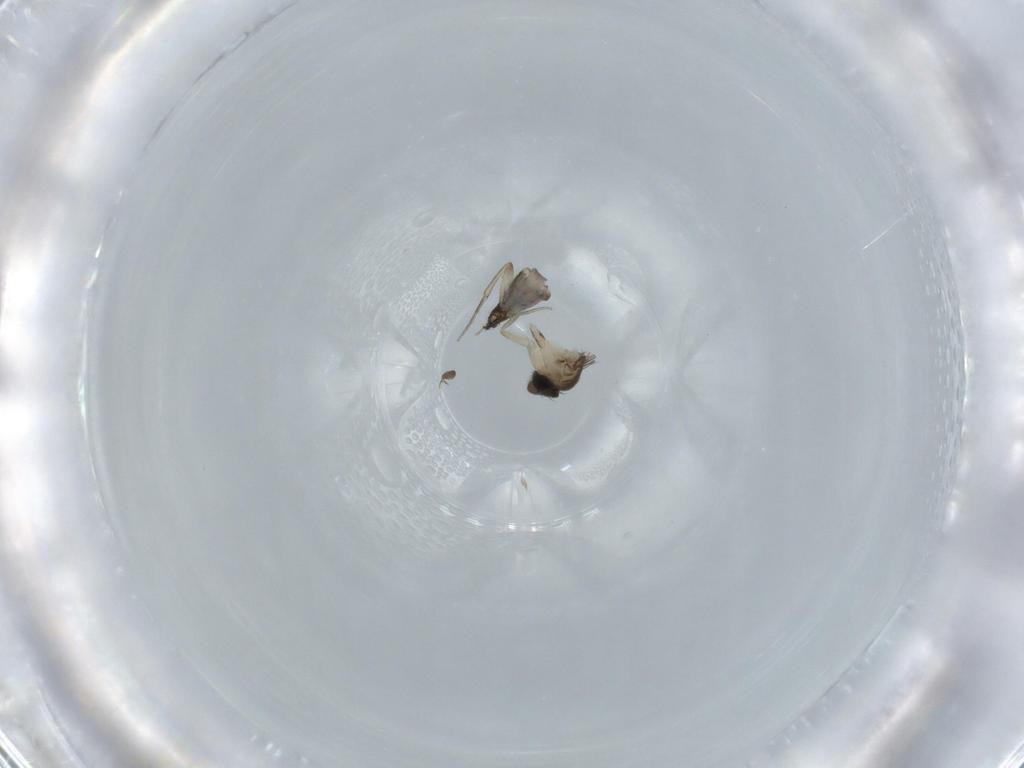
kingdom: Animalia
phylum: Arthropoda
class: Insecta
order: Diptera
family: Phoridae
